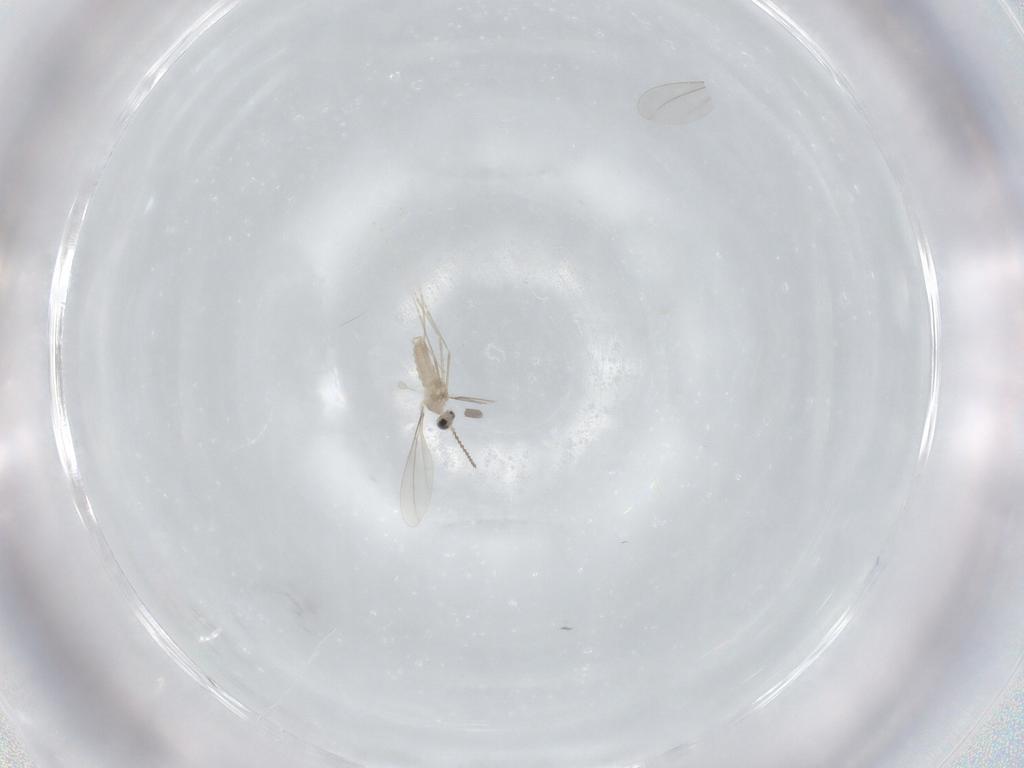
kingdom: Animalia
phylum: Arthropoda
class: Insecta
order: Diptera
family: Cecidomyiidae
